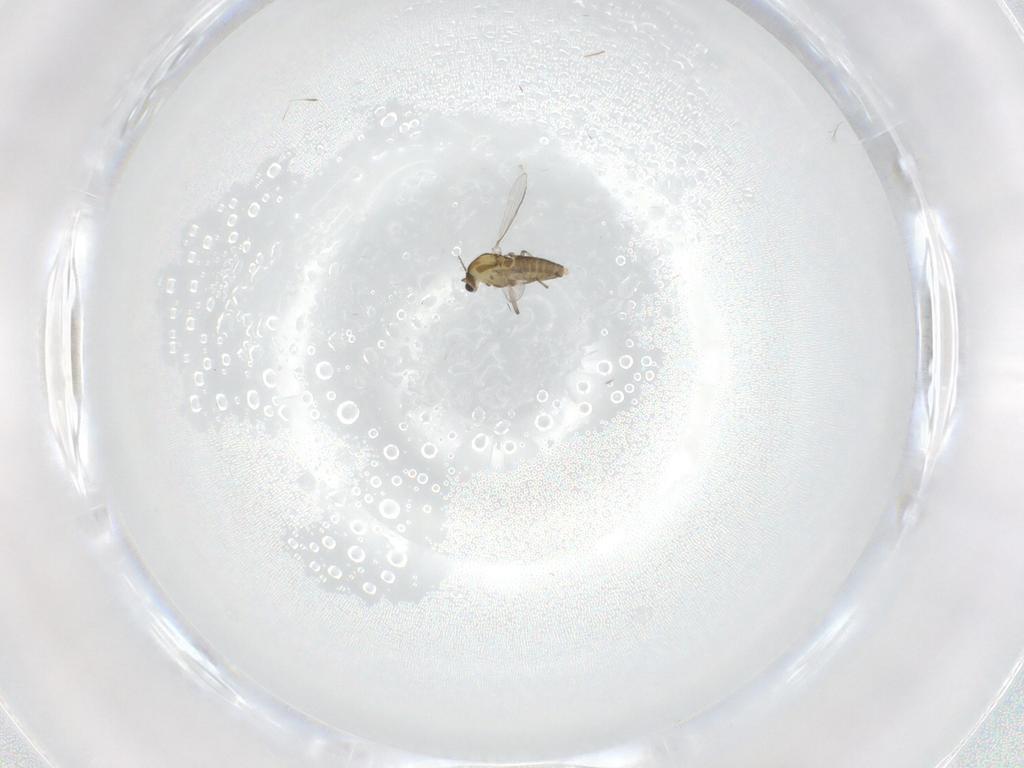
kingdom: Animalia
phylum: Arthropoda
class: Insecta
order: Diptera
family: Chironomidae
